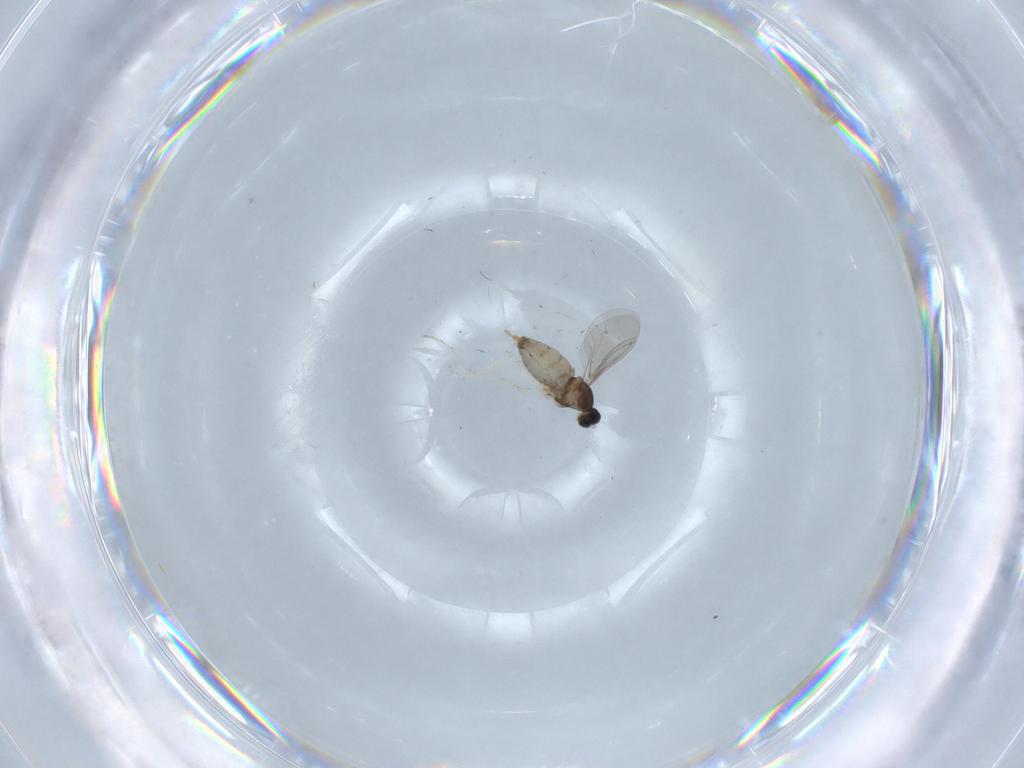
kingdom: Animalia
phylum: Arthropoda
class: Insecta
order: Diptera
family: Cecidomyiidae
